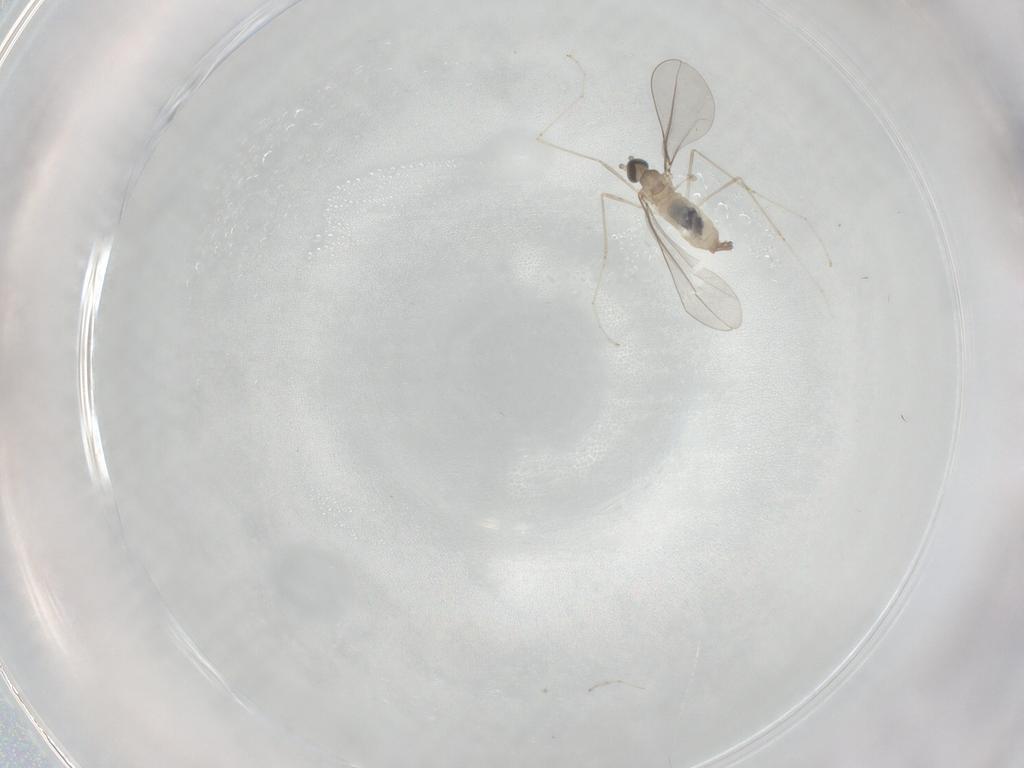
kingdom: Animalia
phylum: Arthropoda
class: Insecta
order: Diptera
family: Cecidomyiidae
